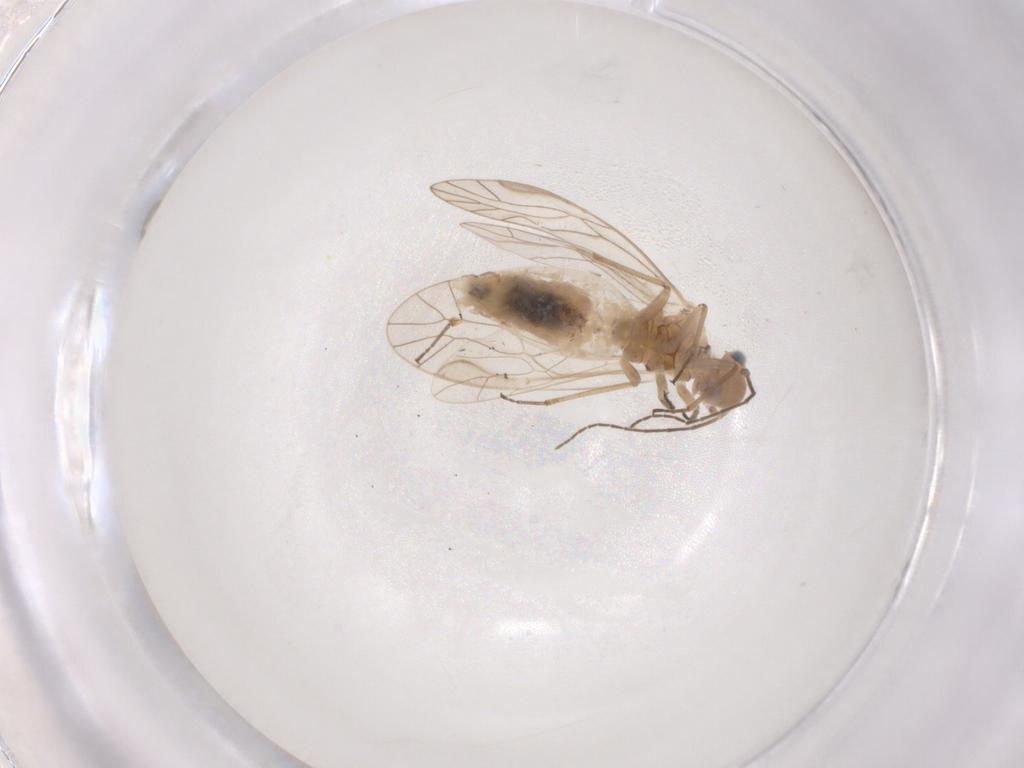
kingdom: Animalia
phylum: Arthropoda
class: Insecta
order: Psocodea
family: Elipsocidae
